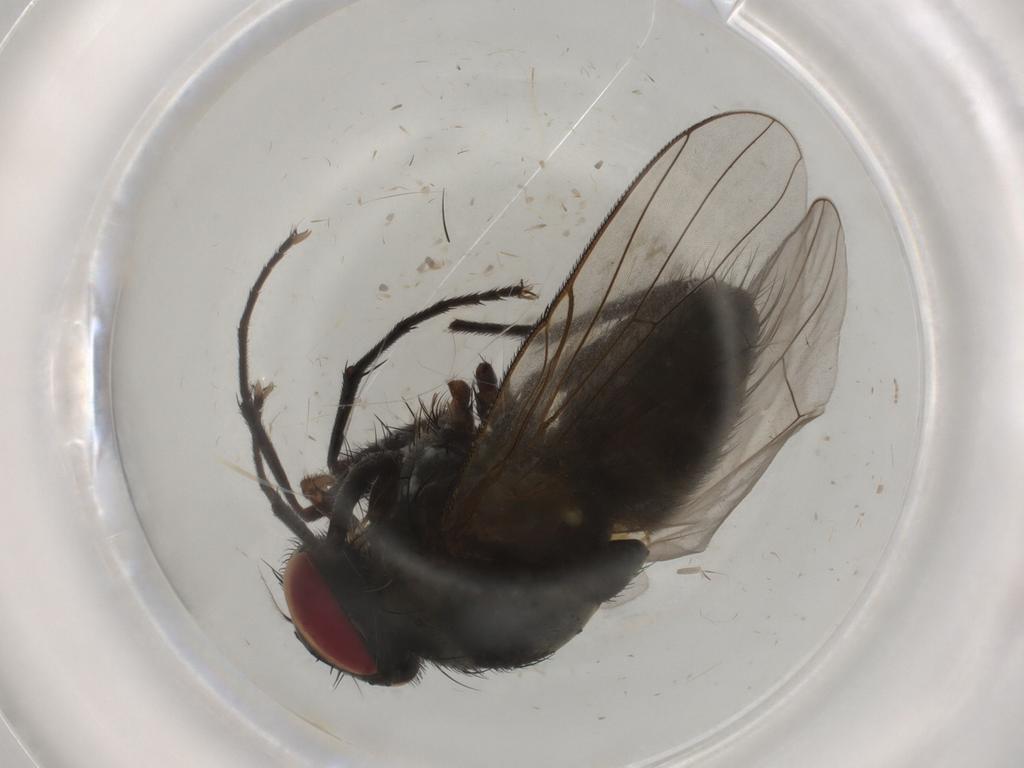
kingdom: Animalia
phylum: Arthropoda
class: Insecta
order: Diptera
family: Muscidae
